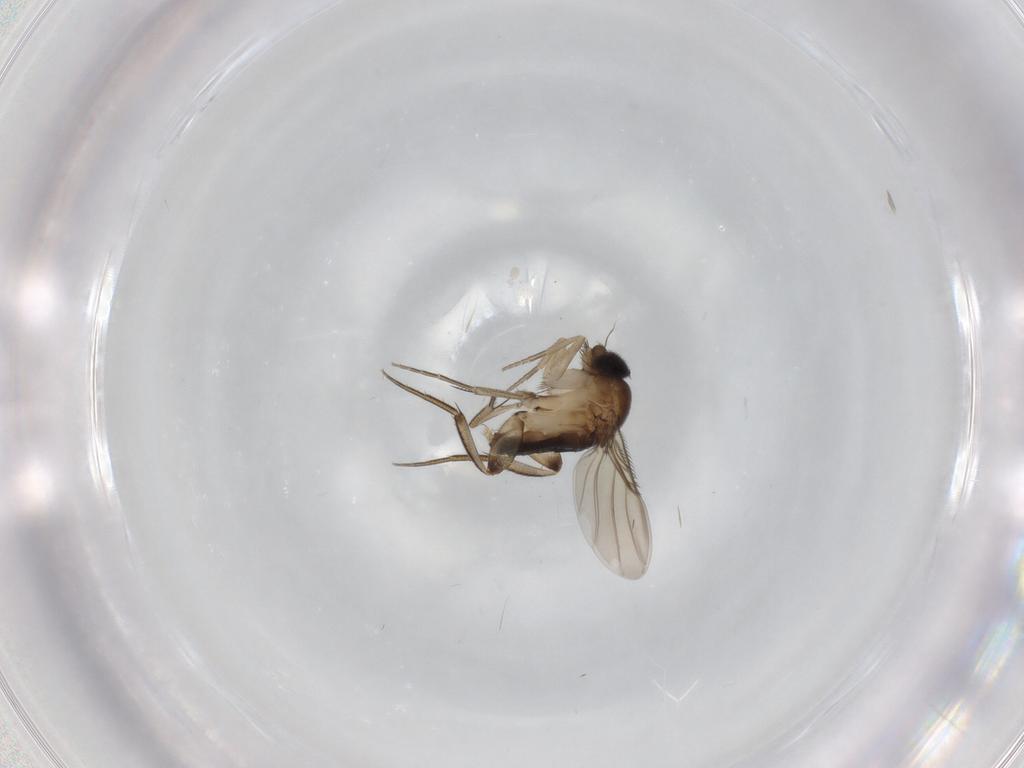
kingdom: Animalia
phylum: Arthropoda
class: Insecta
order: Diptera
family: Phoridae
